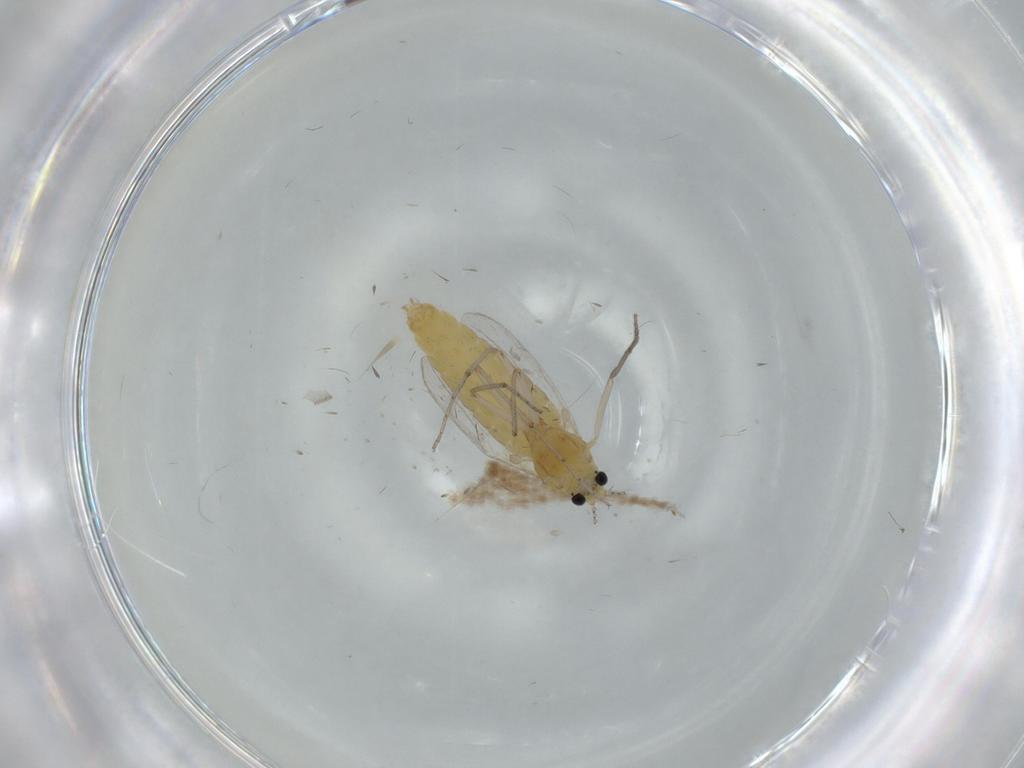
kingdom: Animalia
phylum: Arthropoda
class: Insecta
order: Diptera
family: Chironomidae
